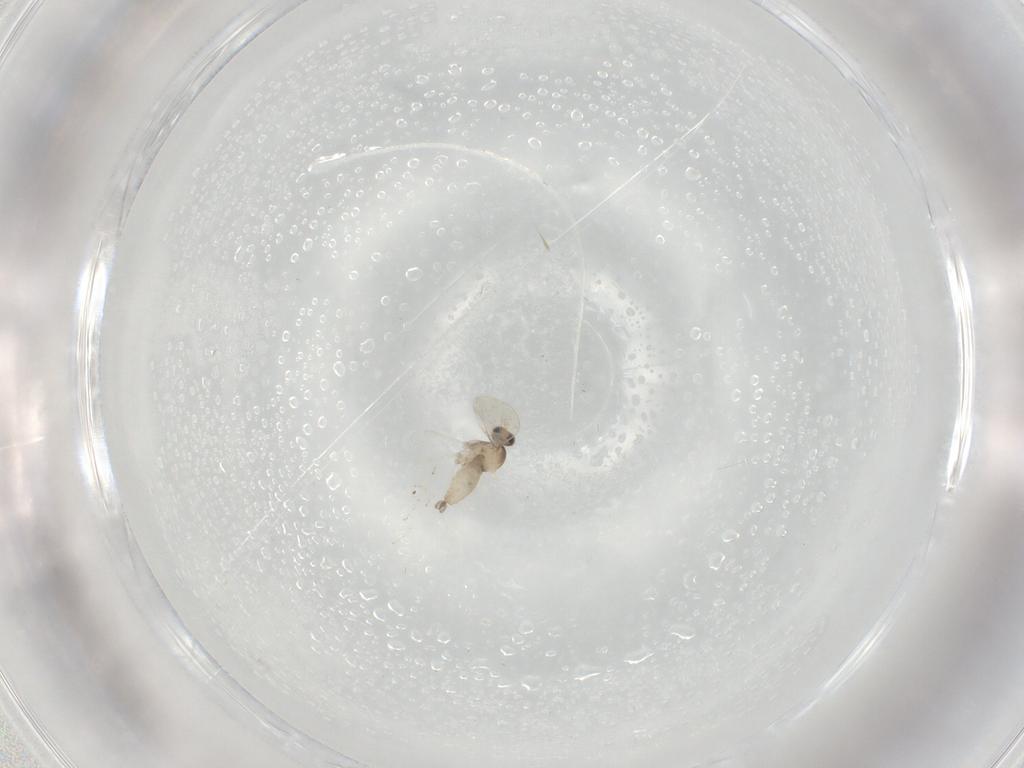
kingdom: Animalia
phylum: Arthropoda
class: Insecta
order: Diptera
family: Cecidomyiidae
